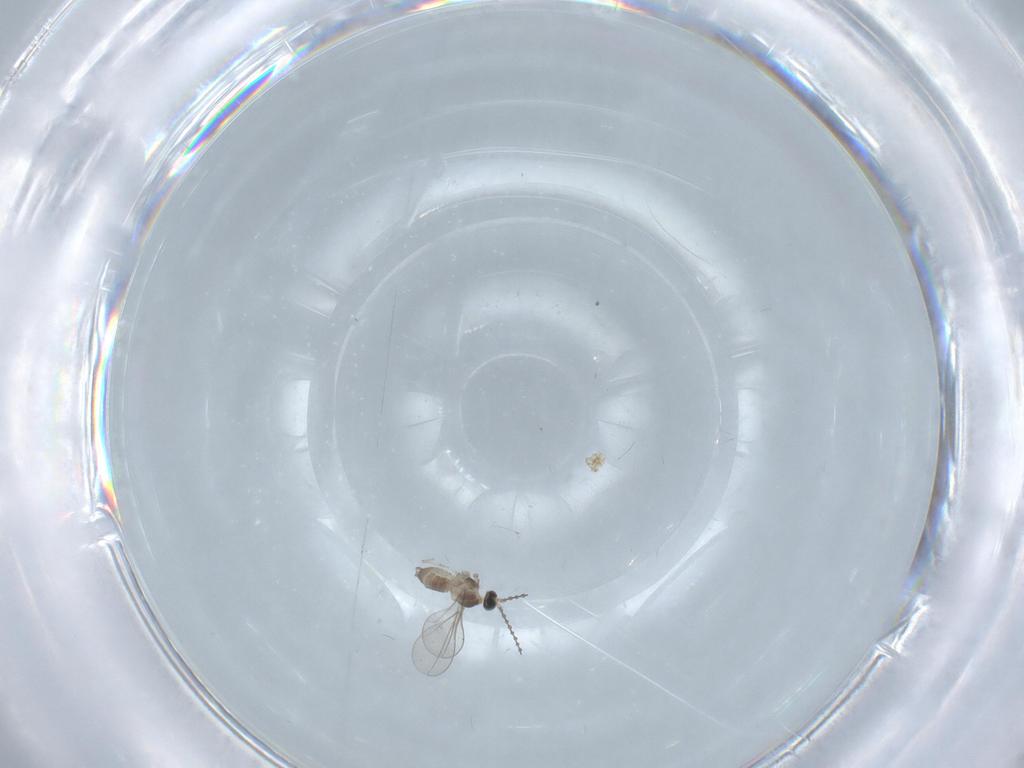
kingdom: Animalia
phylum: Arthropoda
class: Insecta
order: Diptera
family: Cecidomyiidae
